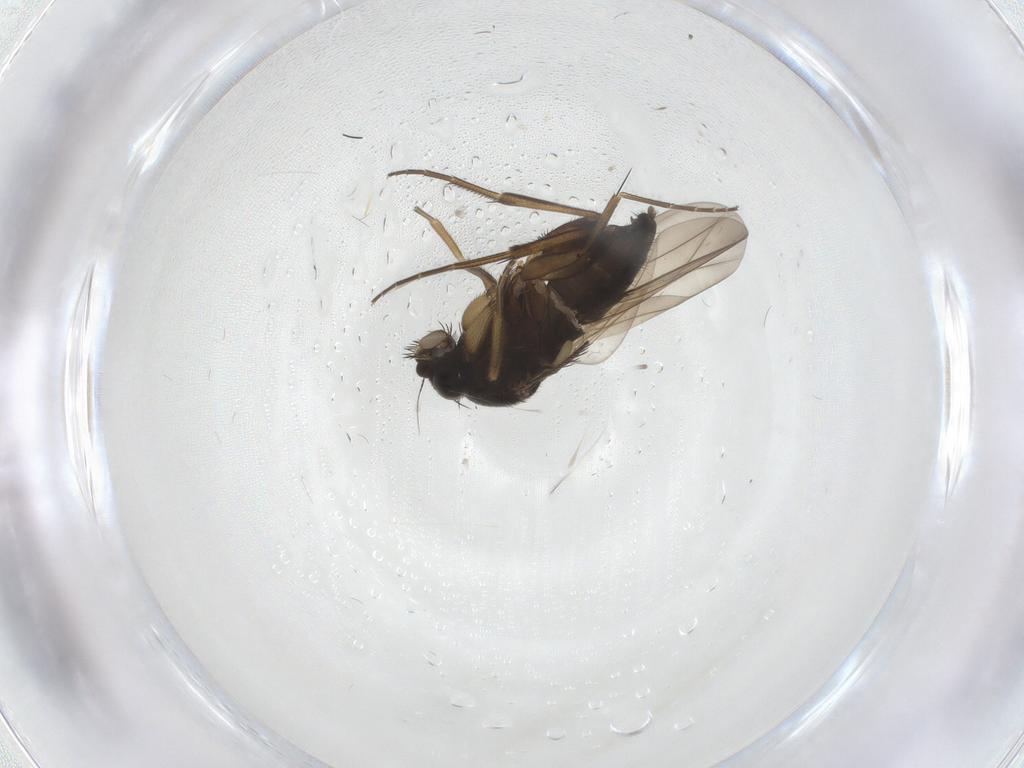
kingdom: Animalia
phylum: Arthropoda
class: Insecta
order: Diptera
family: Phoridae
